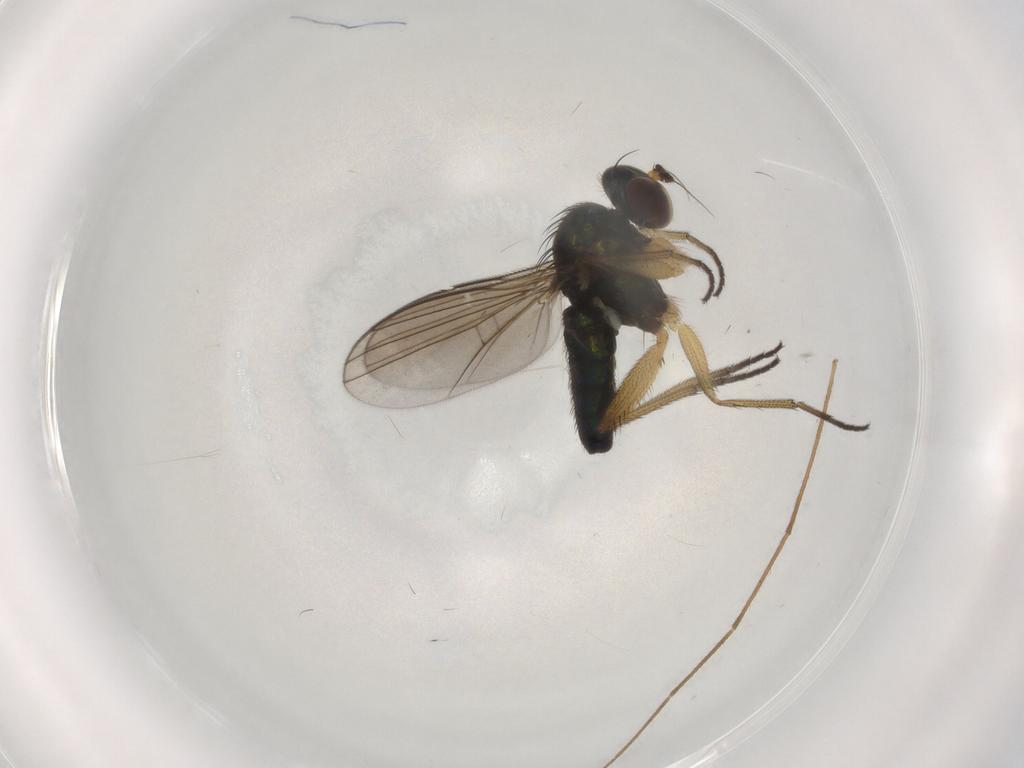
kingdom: Animalia
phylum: Arthropoda
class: Insecta
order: Diptera
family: Dolichopodidae
